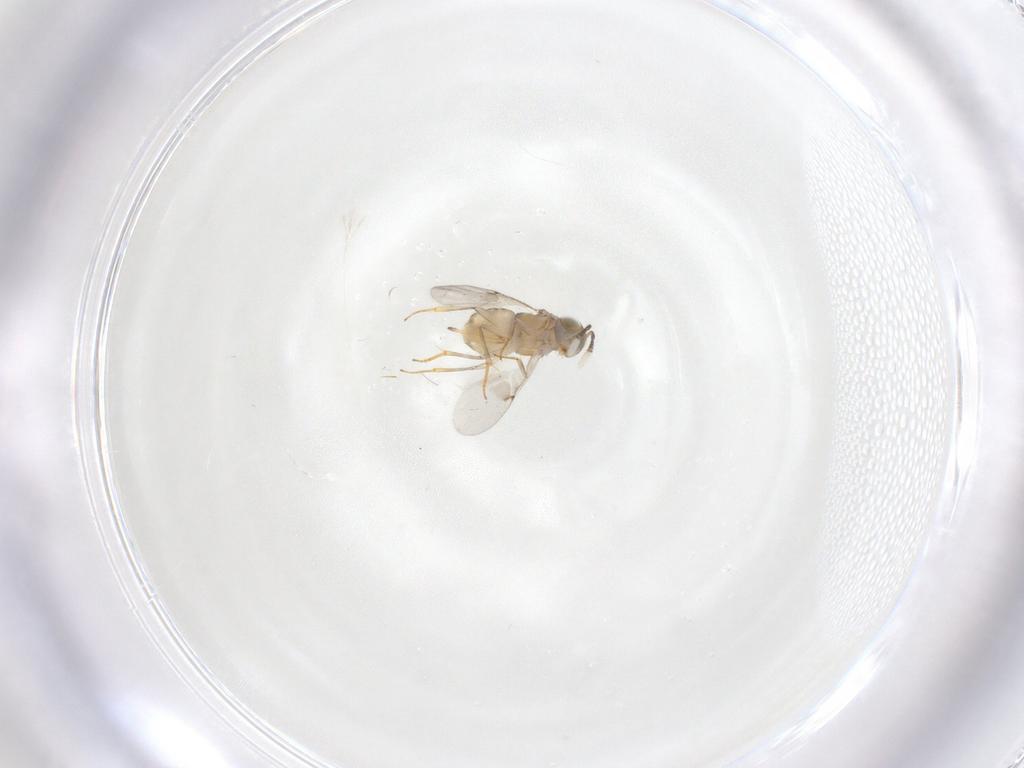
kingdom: Animalia
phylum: Arthropoda
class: Insecta
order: Hymenoptera
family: Encyrtidae
